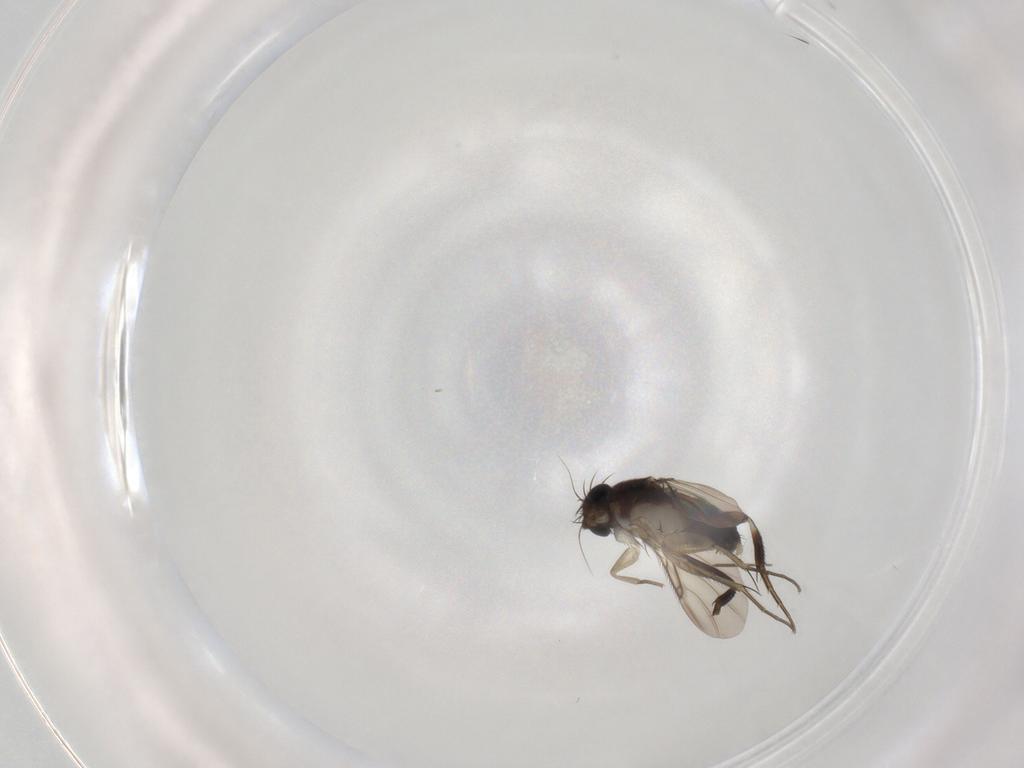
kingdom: Animalia
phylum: Arthropoda
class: Insecta
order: Diptera
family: Phoridae
